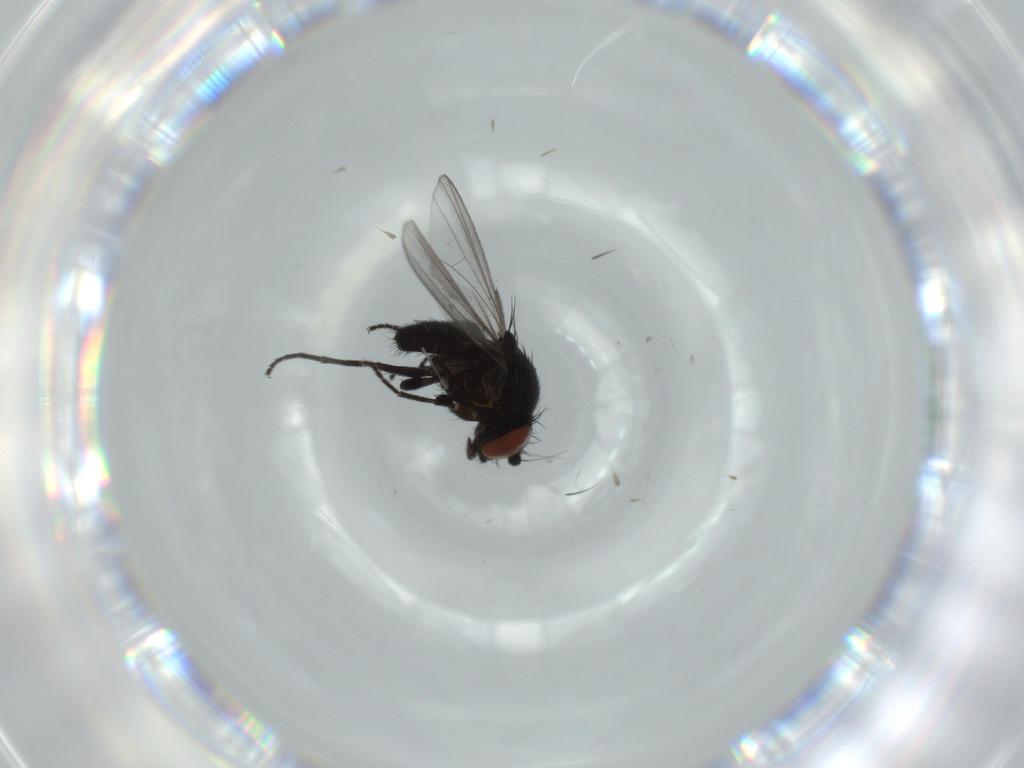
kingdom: Animalia
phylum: Arthropoda
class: Insecta
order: Diptera
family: Milichiidae
